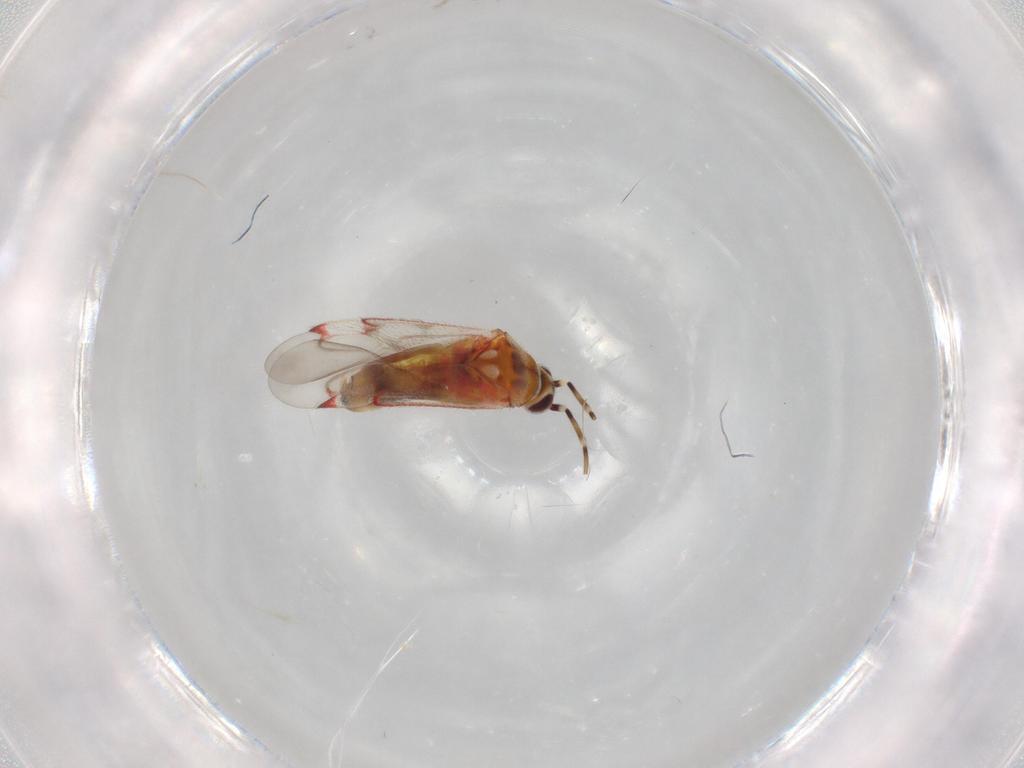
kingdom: Animalia
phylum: Arthropoda
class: Insecta
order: Hemiptera
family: Miridae
